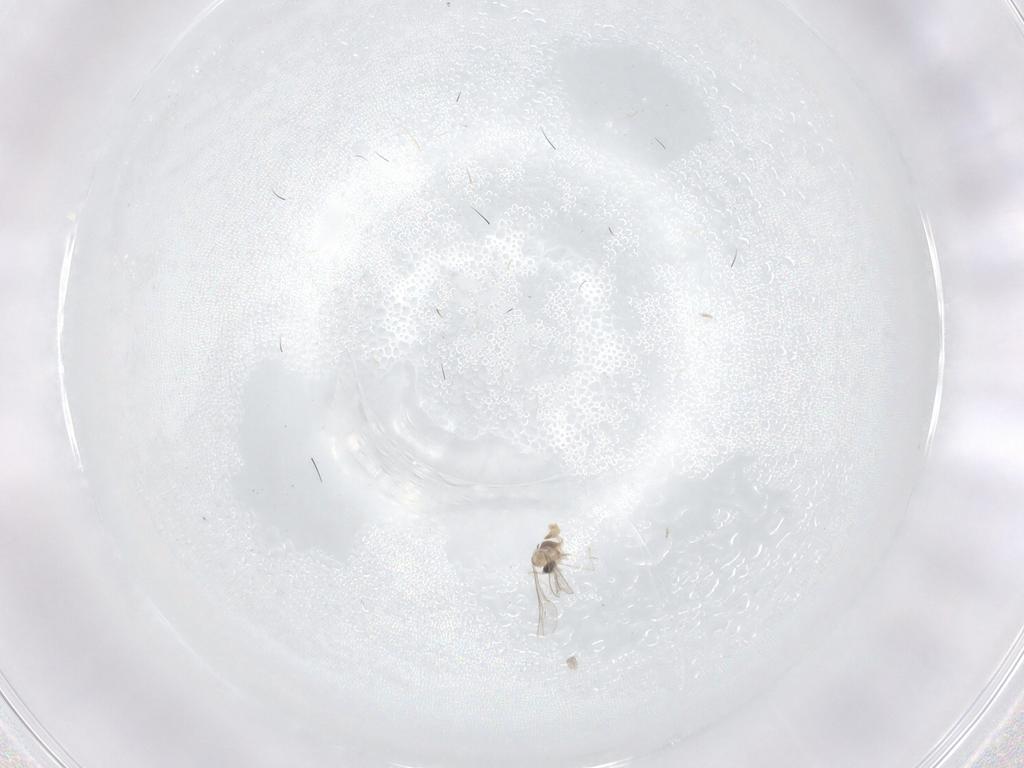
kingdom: Animalia
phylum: Arthropoda
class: Insecta
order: Diptera
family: Cecidomyiidae
